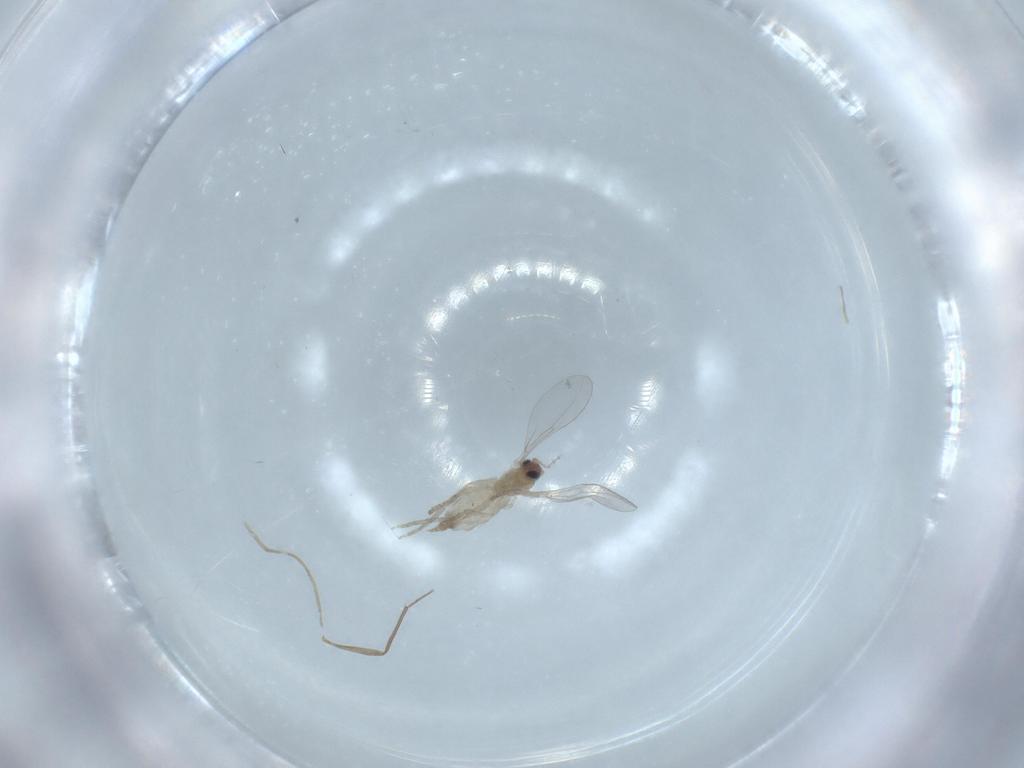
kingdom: Animalia
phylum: Arthropoda
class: Insecta
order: Diptera
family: Cecidomyiidae
